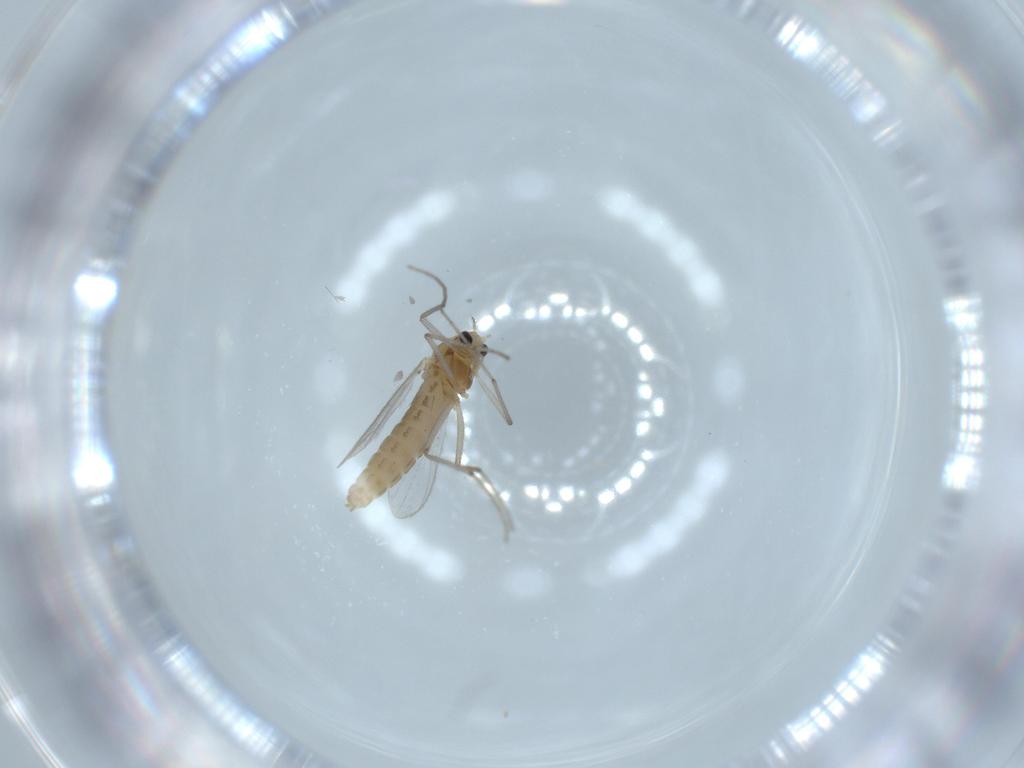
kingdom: Animalia
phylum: Arthropoda
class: Insecta
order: Diptera
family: Chironomidae
